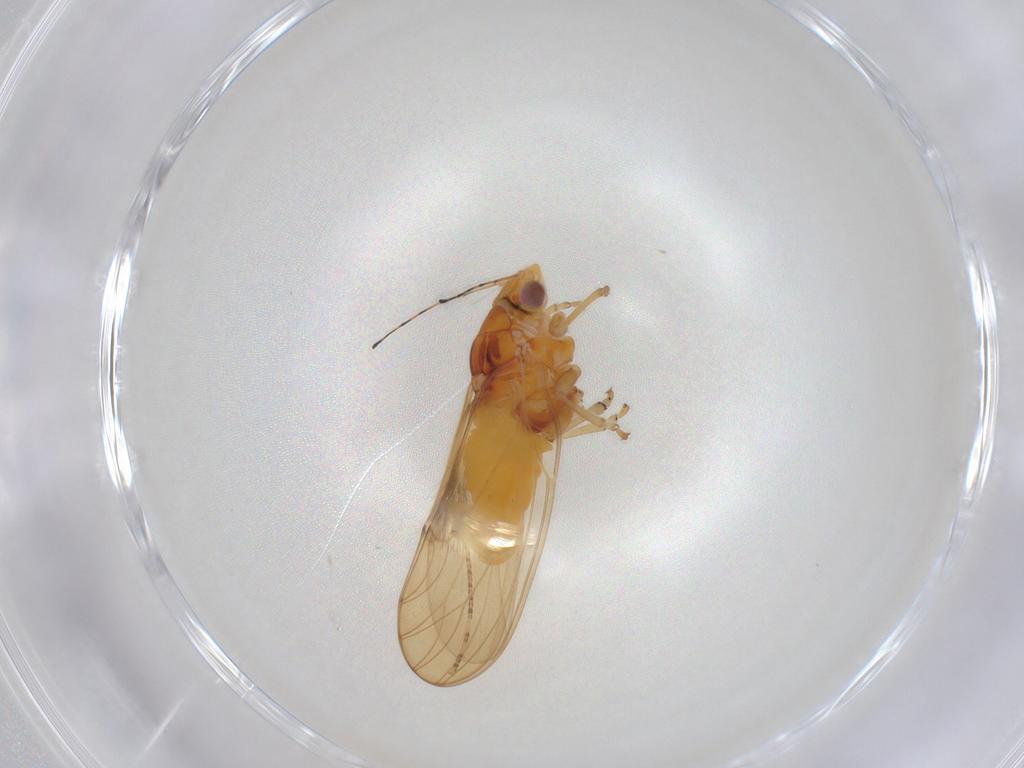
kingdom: Animalia
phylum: Arthropoda
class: Insecta
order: Lepidoptera
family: Cosmopterigidae
